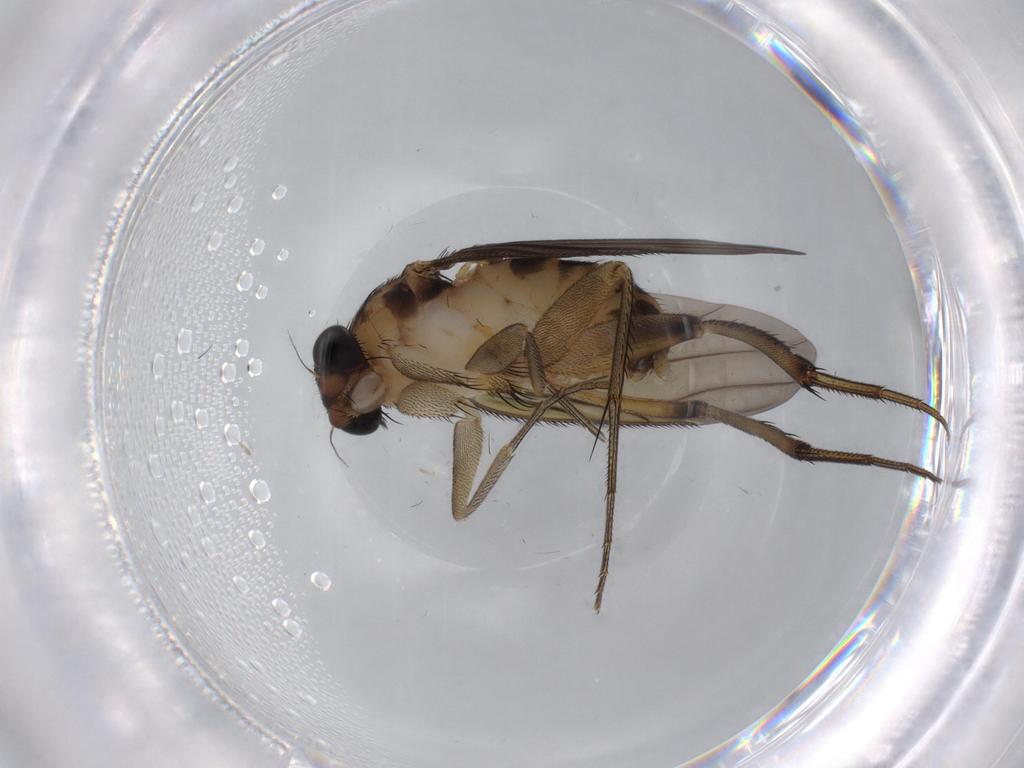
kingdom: Animalia
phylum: Arthropoda
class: Insecta
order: Diptera
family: Phoridae
